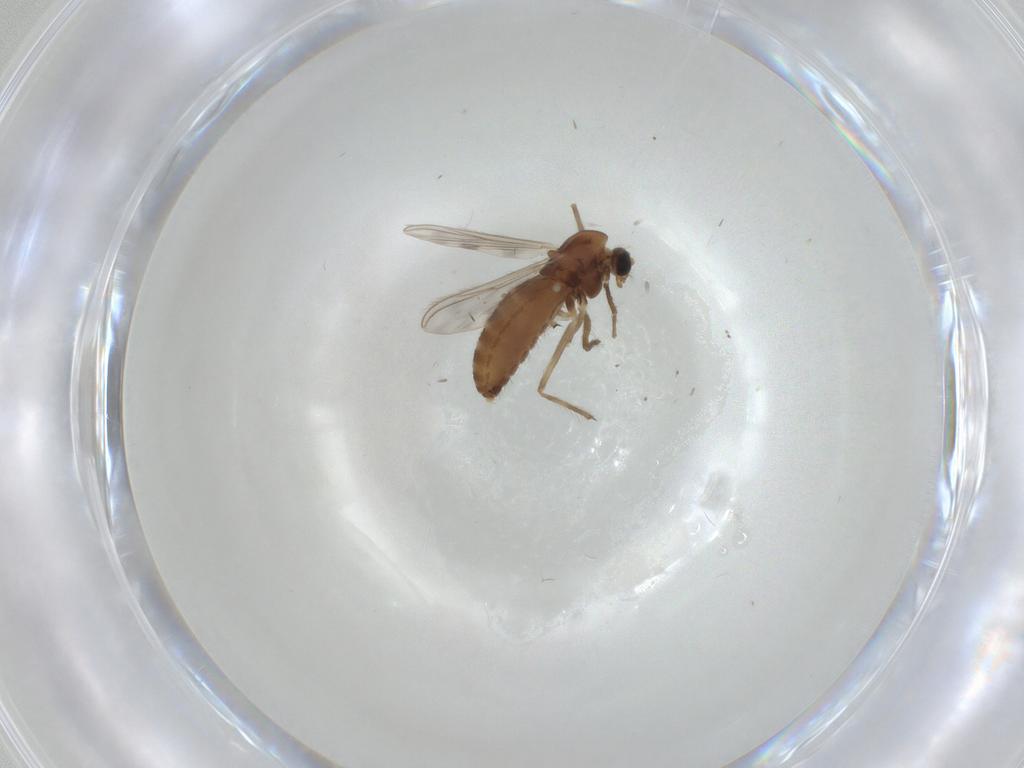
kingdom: Animalia
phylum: Arthropoda
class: Insecta
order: Diptera
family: Chironomidae
